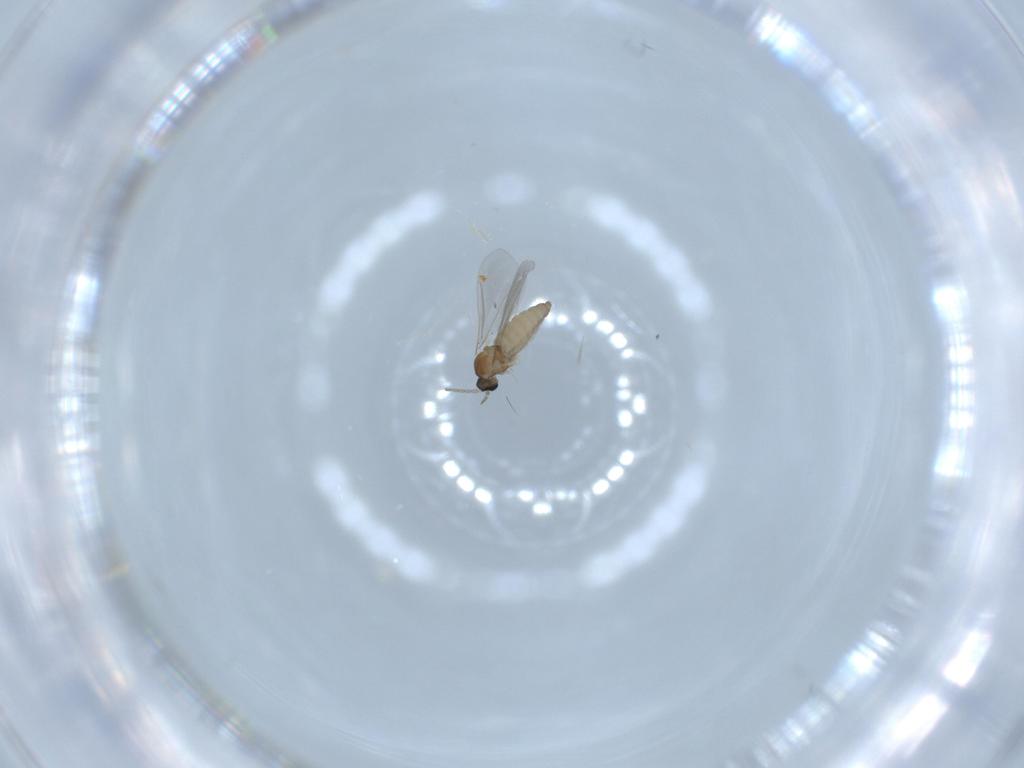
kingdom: Animalia
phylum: Arthropoda
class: Insecta
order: Diptera
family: Cecidomyiidae
